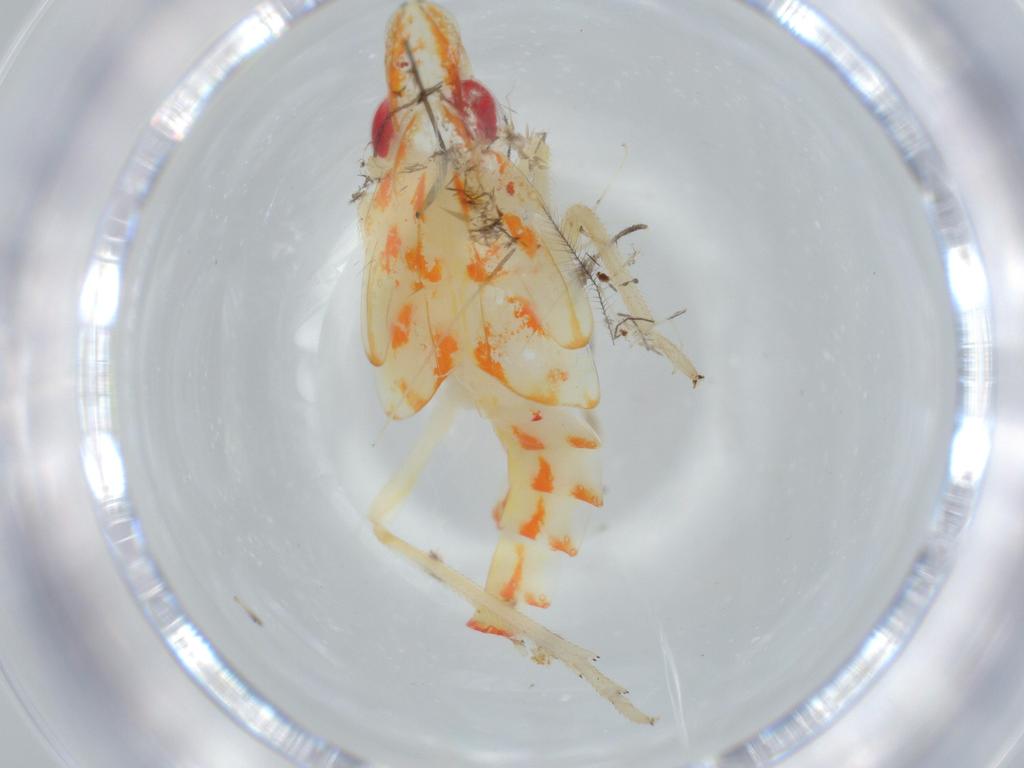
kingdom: Animalia
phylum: Arthropoda
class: Insecta
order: Hemiptera
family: Tropiduchidae
